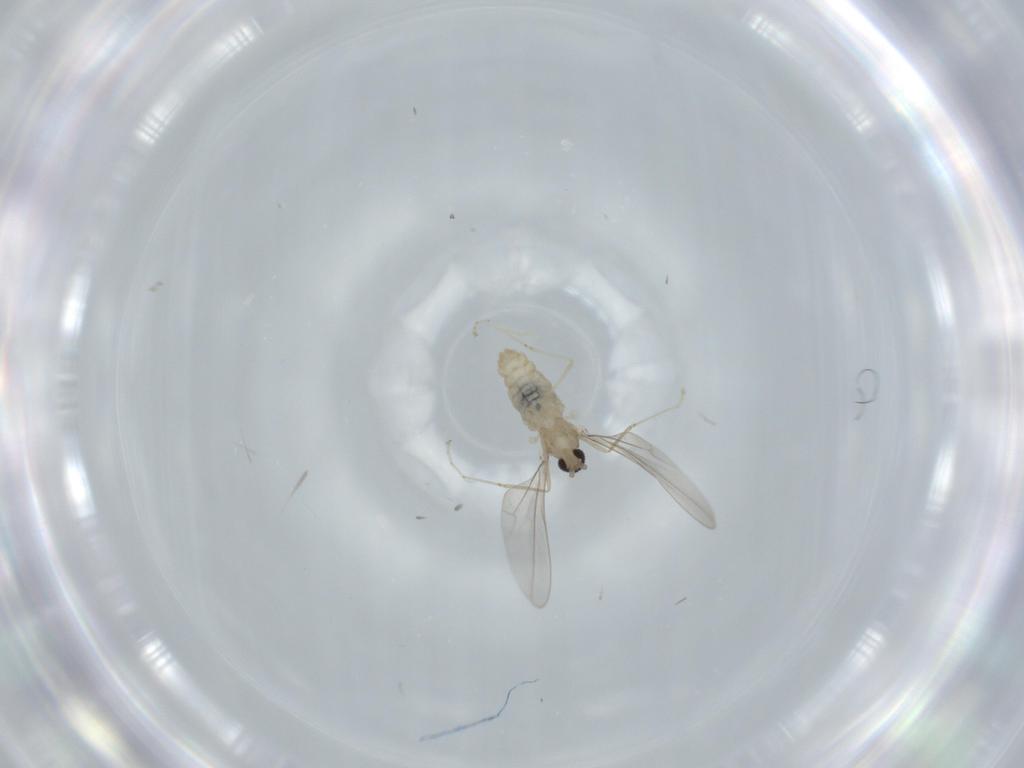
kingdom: Animalia
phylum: Arthropoda
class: Insecta
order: Diptera
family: Cecidomyiidae
